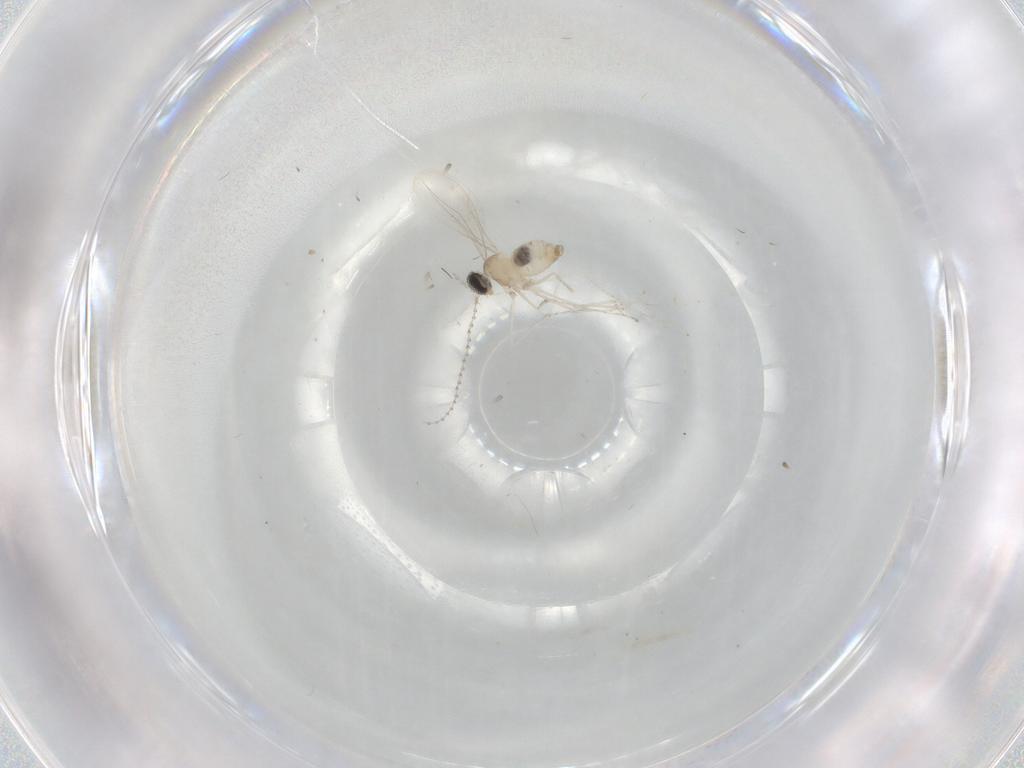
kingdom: Animalia
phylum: Arthropoda
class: Insecta
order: Diptera
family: Cecidomyiidae
